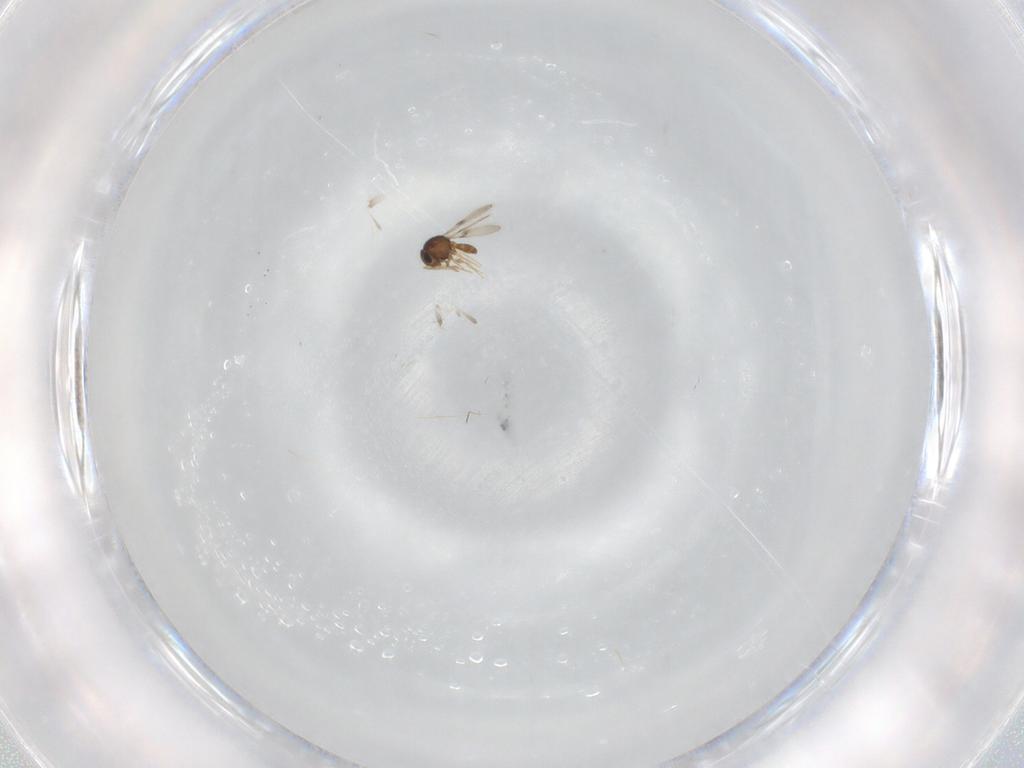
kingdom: Animalia
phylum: Arthropoda
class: Insecta
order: Hymenoptera
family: Scelionidae
